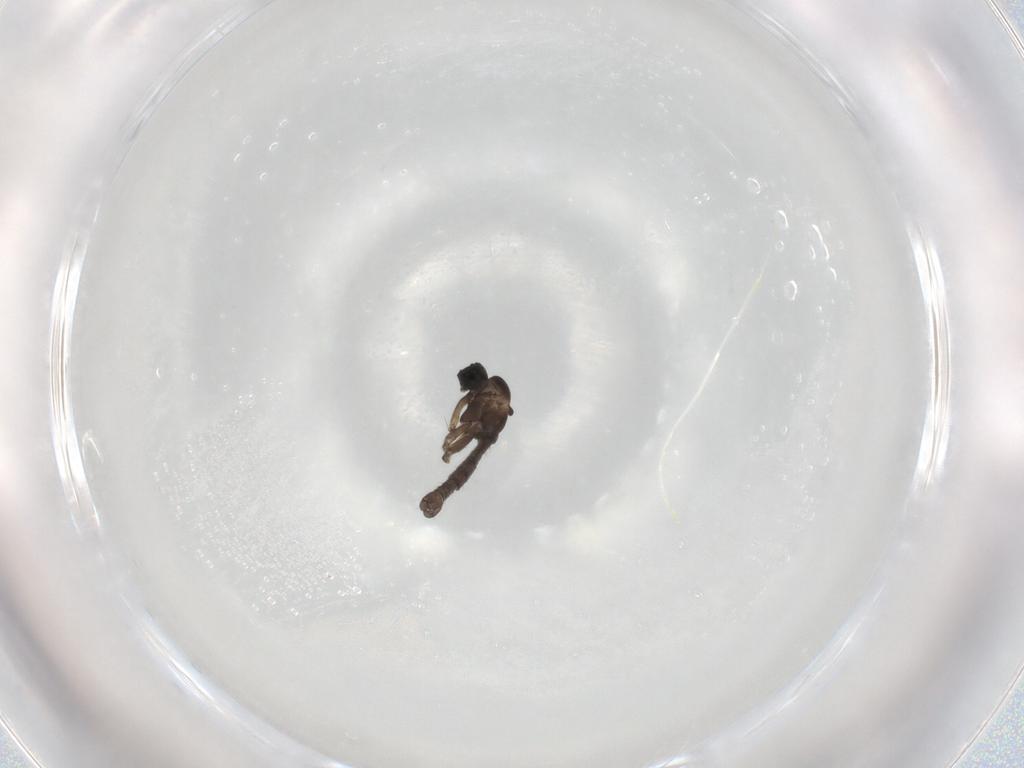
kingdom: Animalia
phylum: Arthropoda
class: Insecta
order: Diptera
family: Sciaridae
